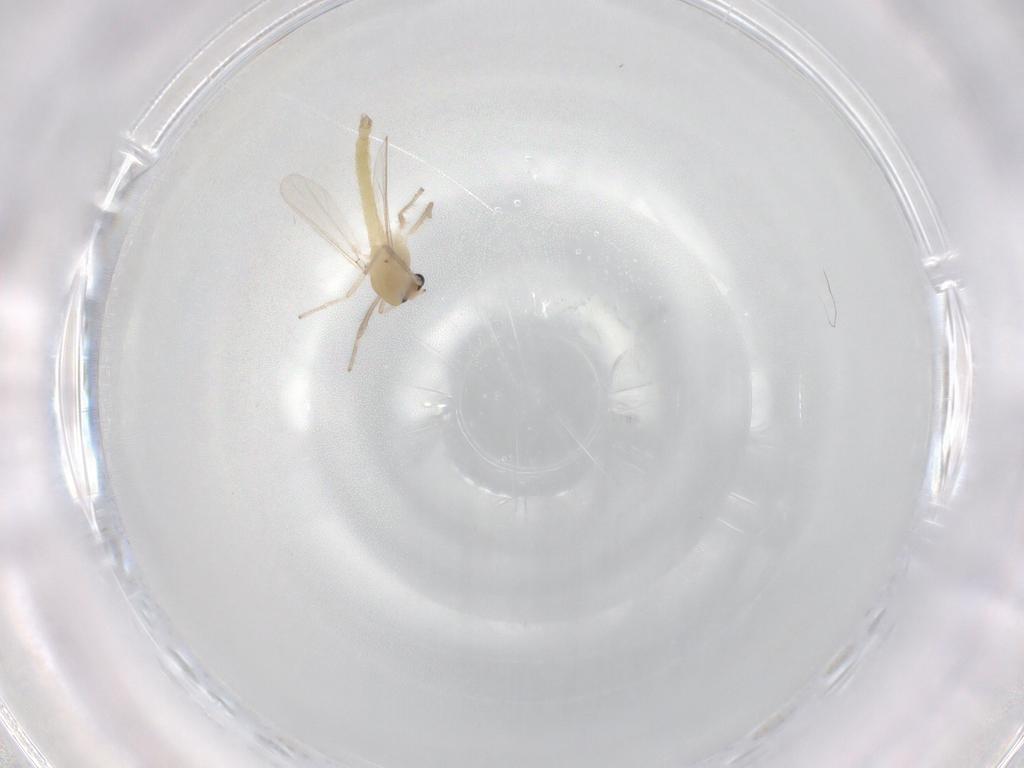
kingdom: Animalia
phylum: Arthropoda
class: Insecta
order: Diptera
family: Chironomidae
